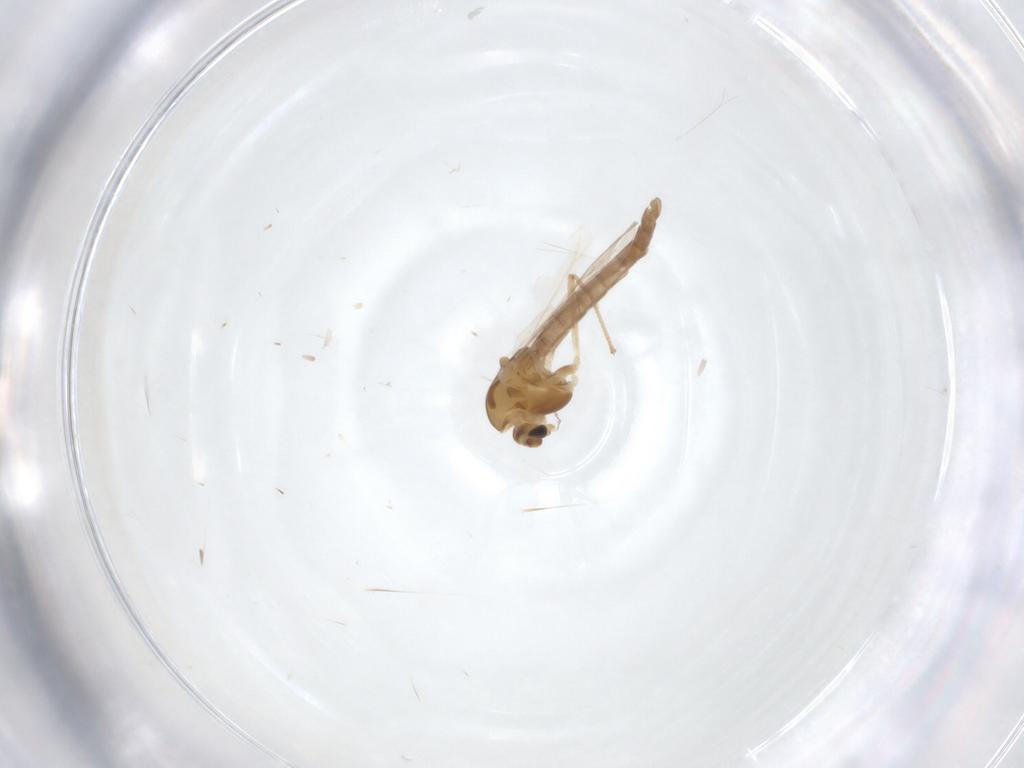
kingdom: Animalia
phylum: Arthropoda
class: Insecta
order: Diptera
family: Chironomidae
